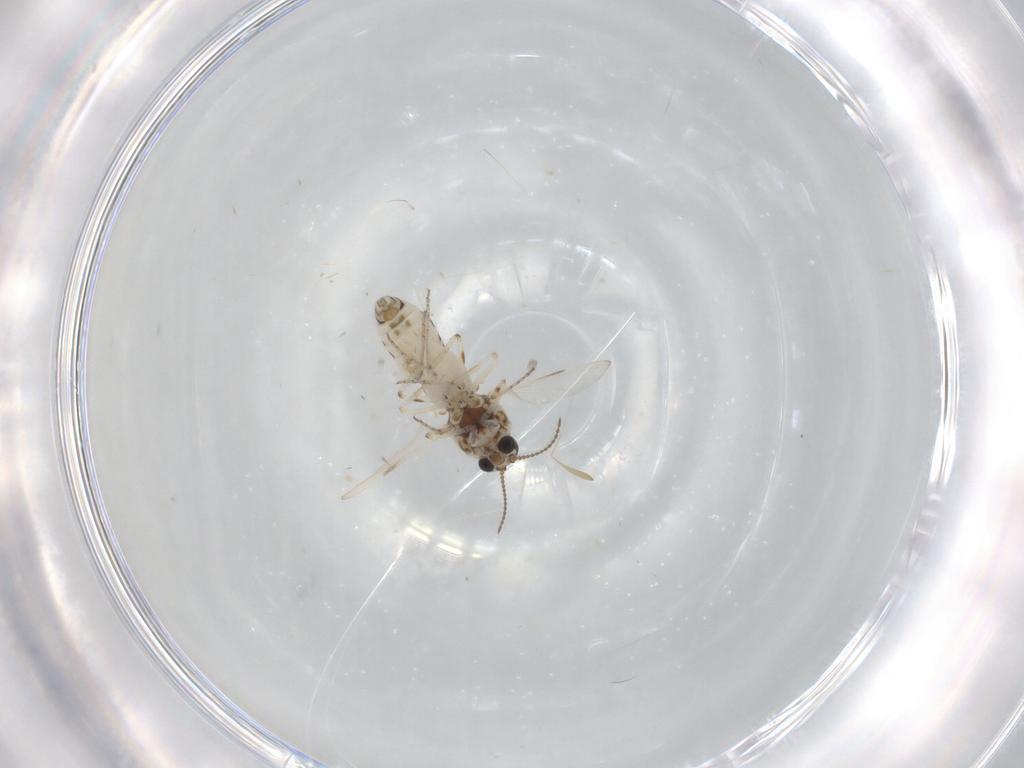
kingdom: Animalia
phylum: Arthropoda
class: Insecta
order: Diptera
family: Ceratopogonidae
